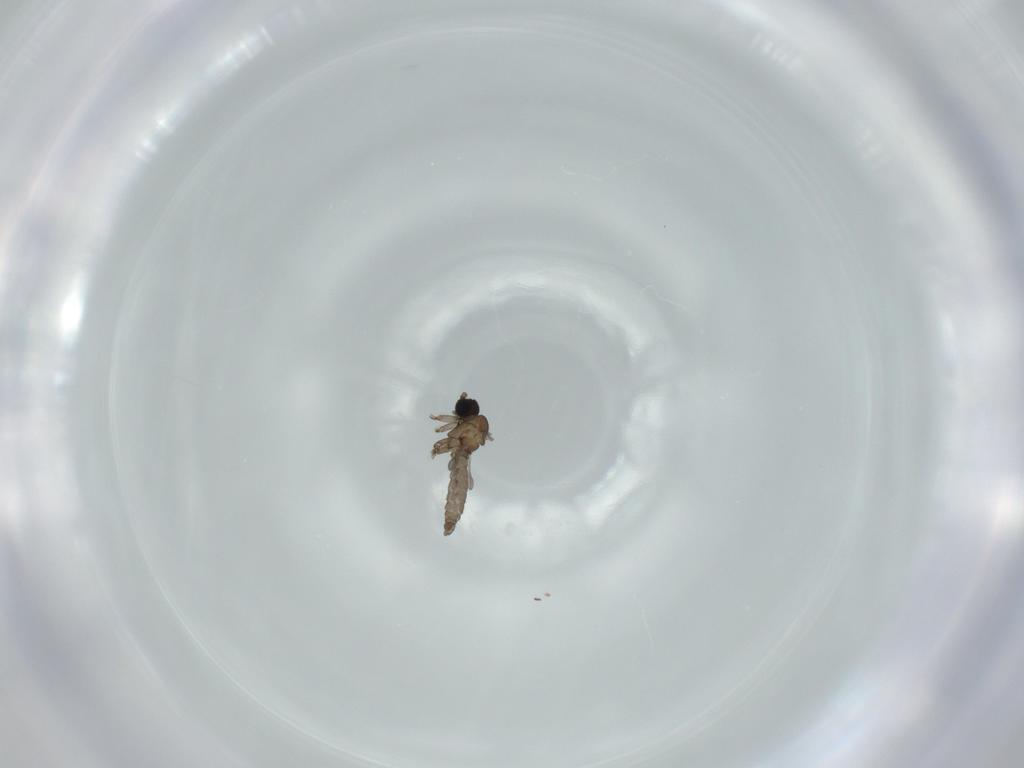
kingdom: Animalia
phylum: Arthropoda
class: Insecta
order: Diptera
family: Sciaridae
